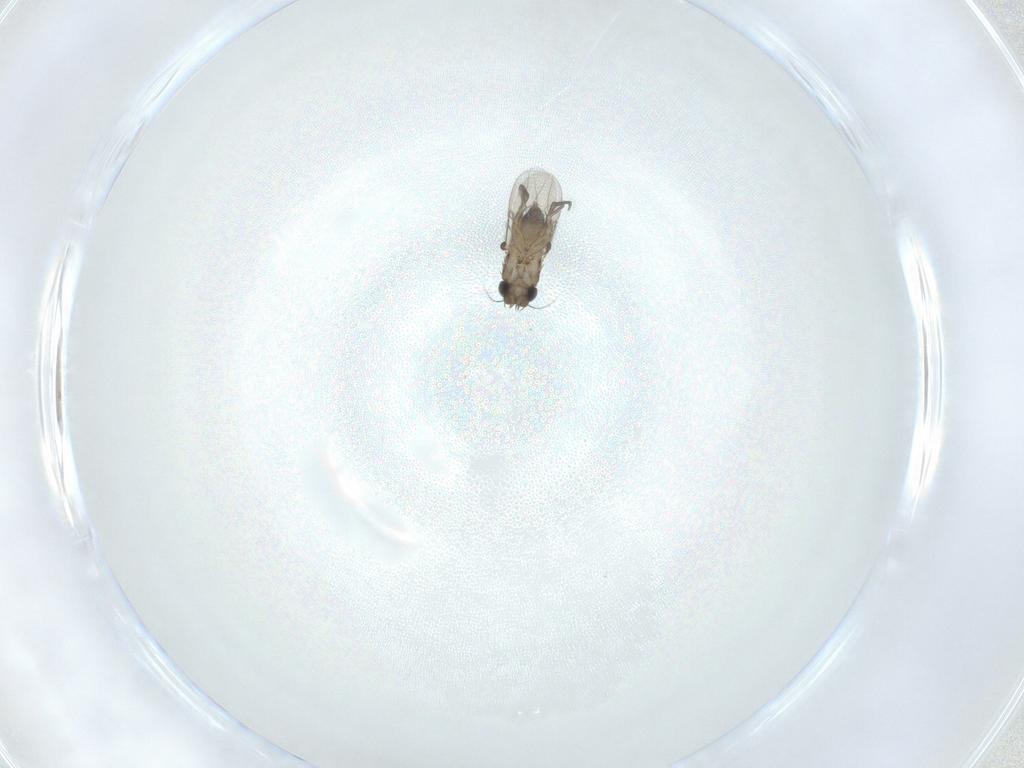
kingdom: Animalia
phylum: Arthropoda
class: Insecta
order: Diptera
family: Phoridae
